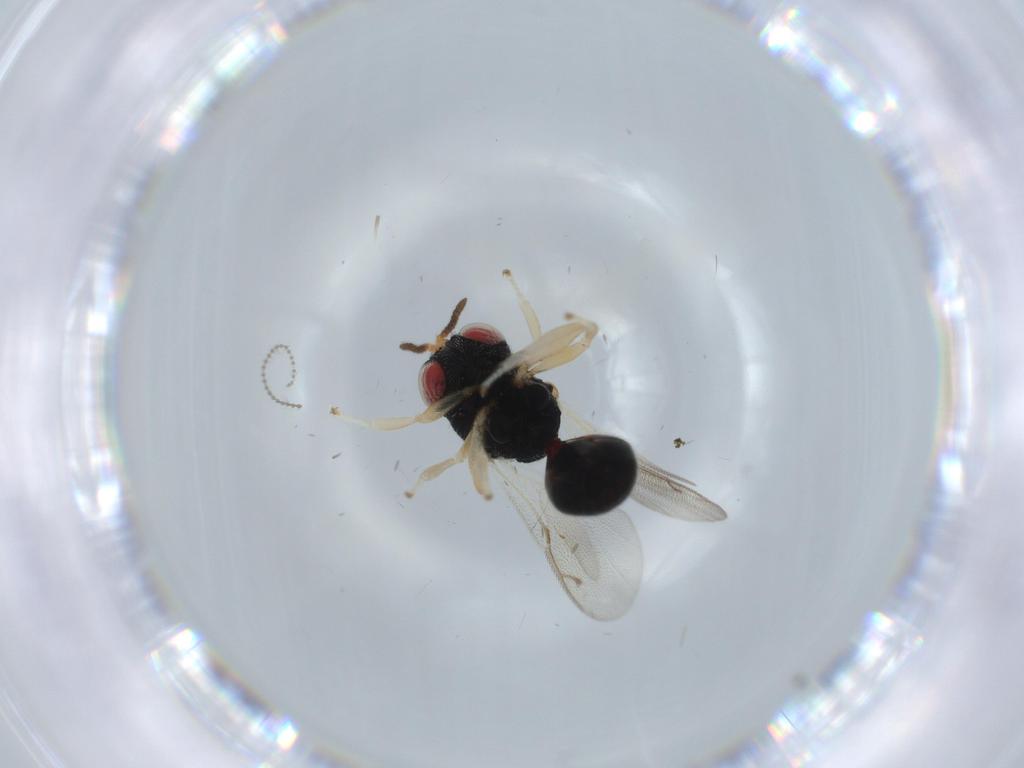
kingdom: Animalia
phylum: Arthropoda
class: Insecta
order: Hymenoptera
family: Eurytomidae
